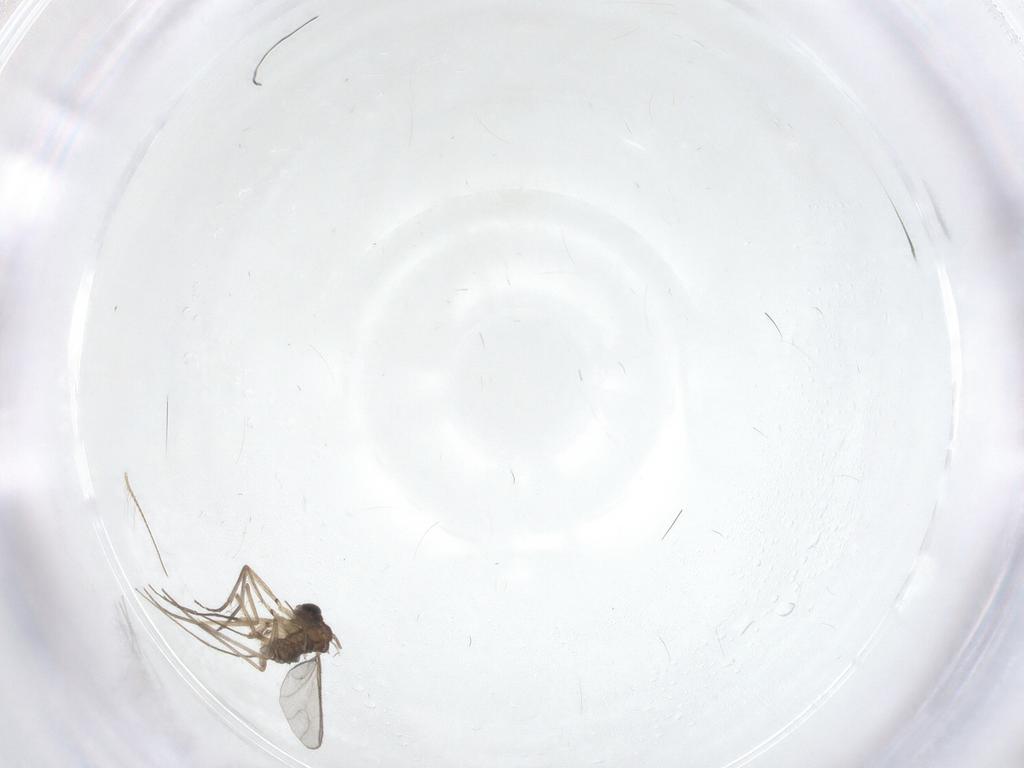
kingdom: Animalia
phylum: Arthropoda
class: Insecta
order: Diptera
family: Sciaridae
